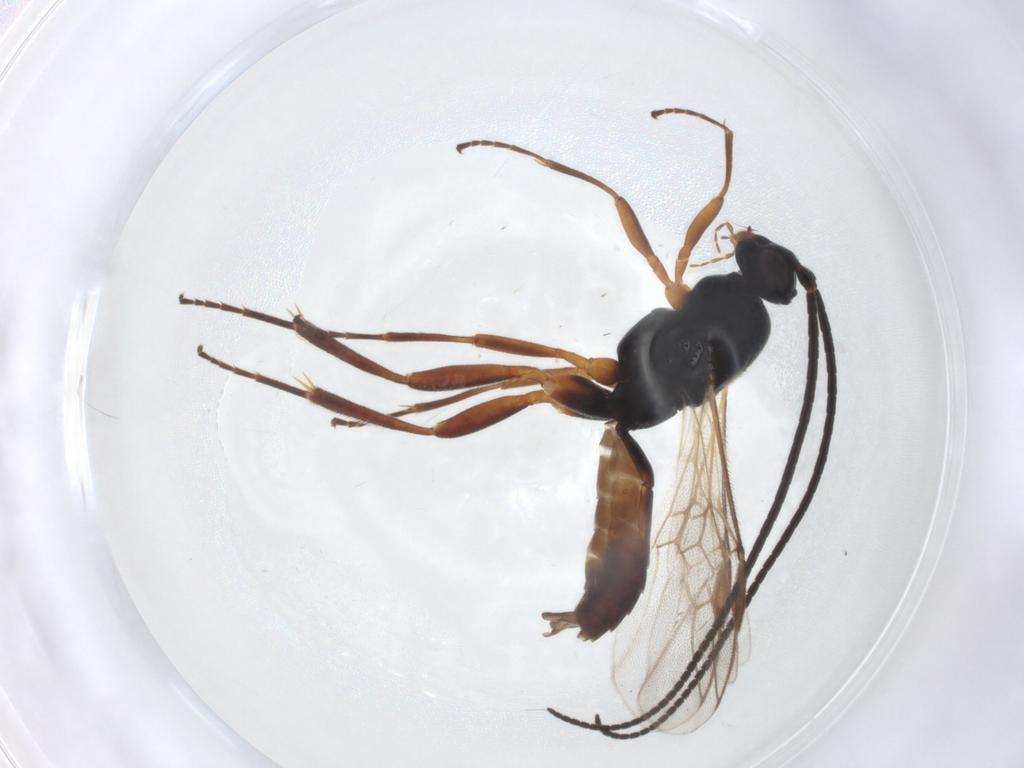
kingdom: Animalia
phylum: Arthropoda
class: Insecta
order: Hymenoptera
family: Braconidae
